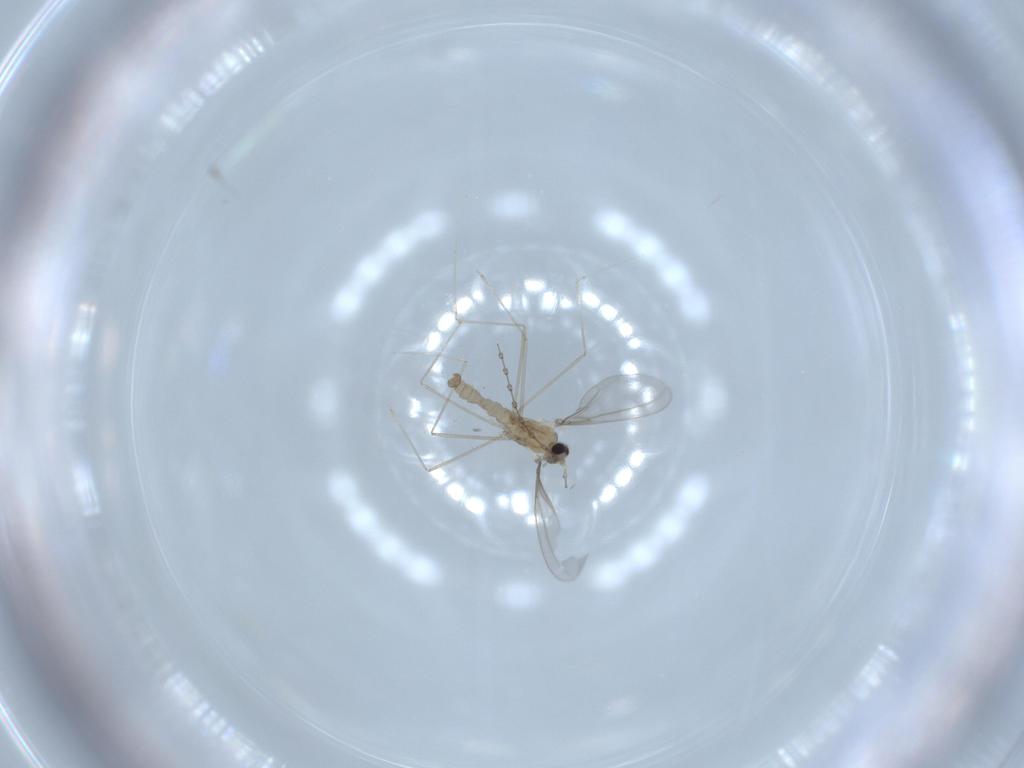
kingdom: Animalia
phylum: Arthropoda
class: Insecta
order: Diptera
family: Cecidomyiidae
